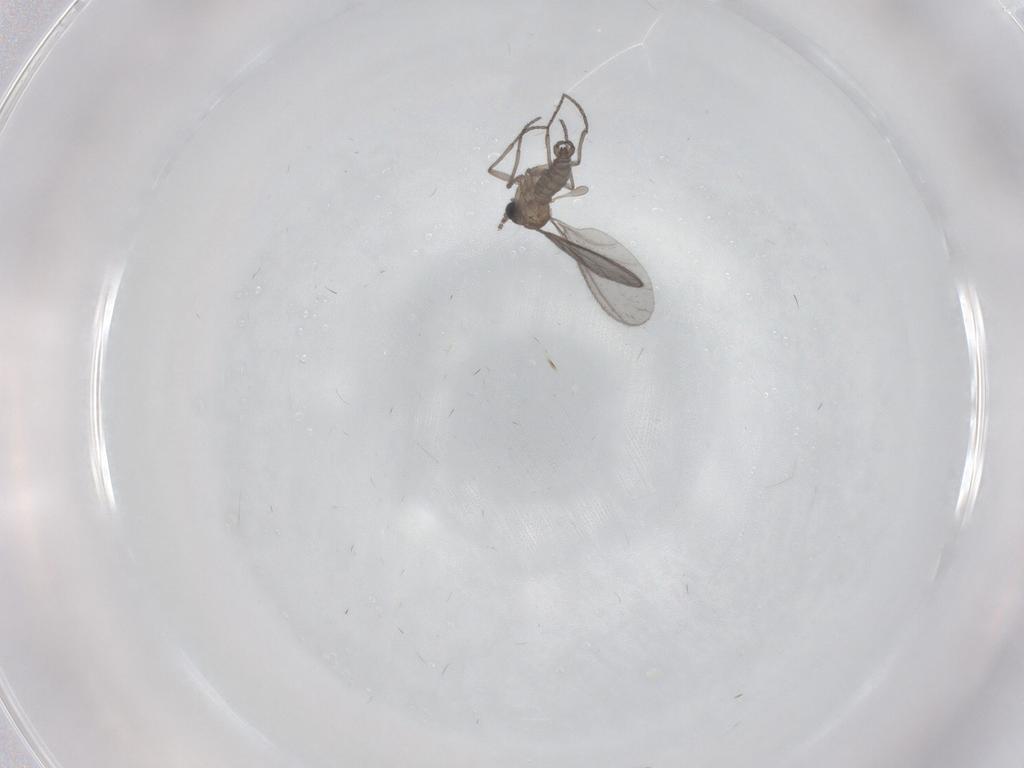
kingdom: Animalia
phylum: Arthropoda
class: Insecta
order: Diptera
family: Sciaridae
